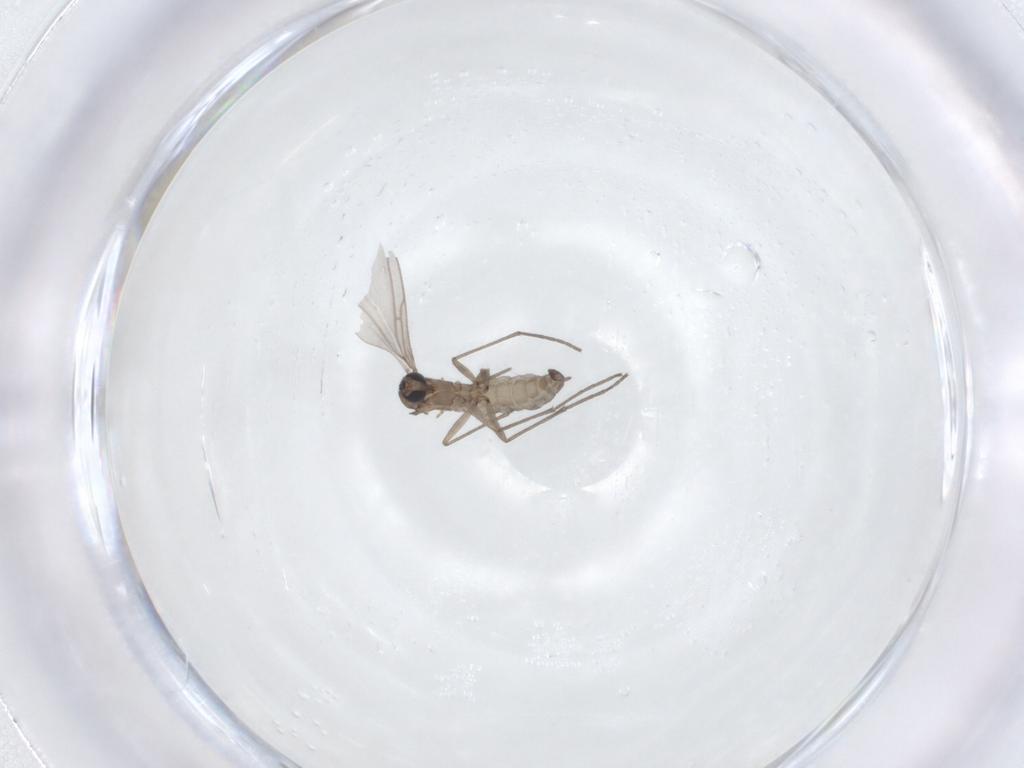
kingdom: Animalia
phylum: Arthropoda
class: Insecta
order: Diptera
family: Sciaridae
